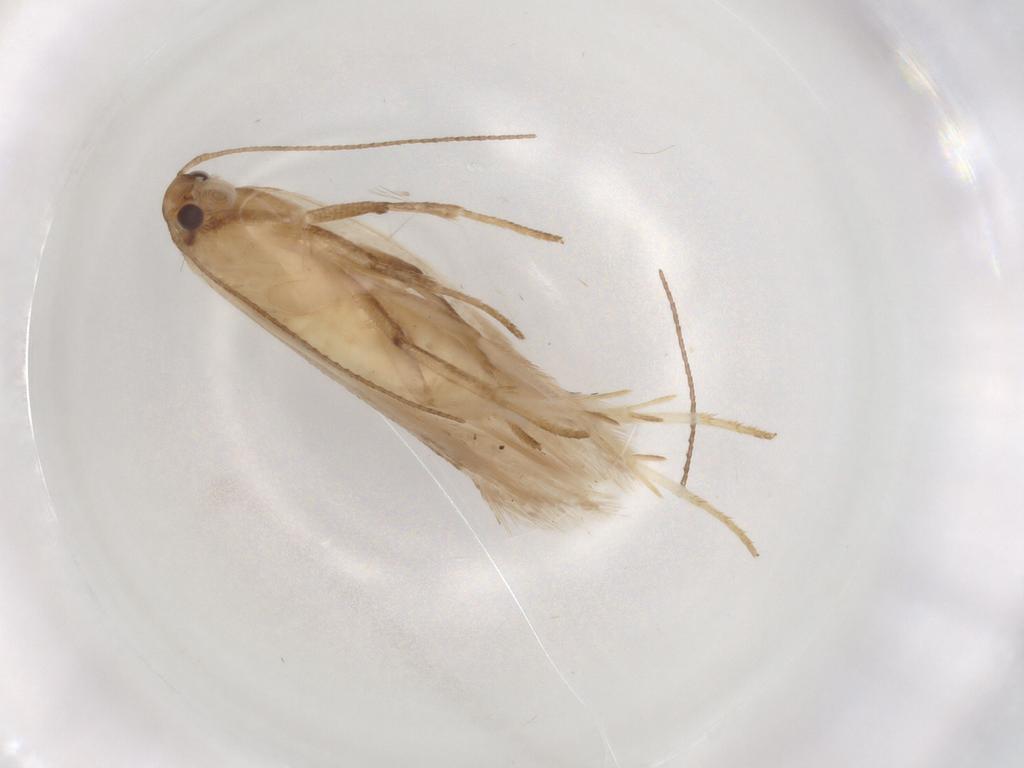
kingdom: Animalia
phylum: Arthropoda
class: Insecta
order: Lepidoptera
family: Gelechiidae
